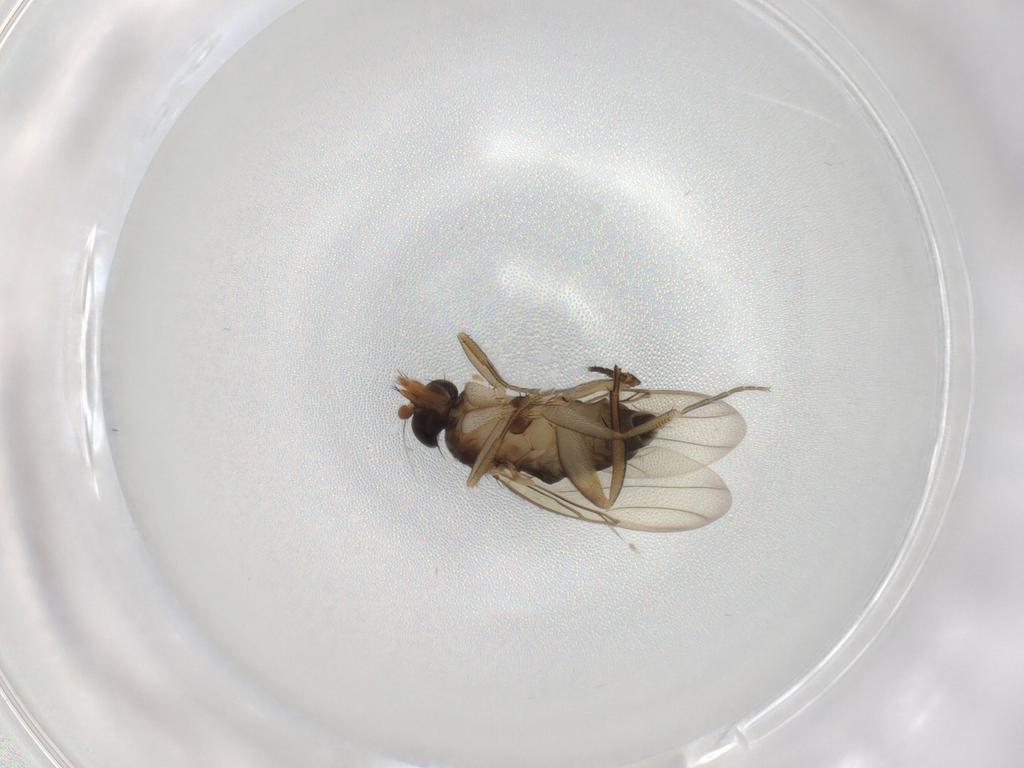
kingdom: Animalia
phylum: Arthropoda
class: Insecta
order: Diptera
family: Phoridae
